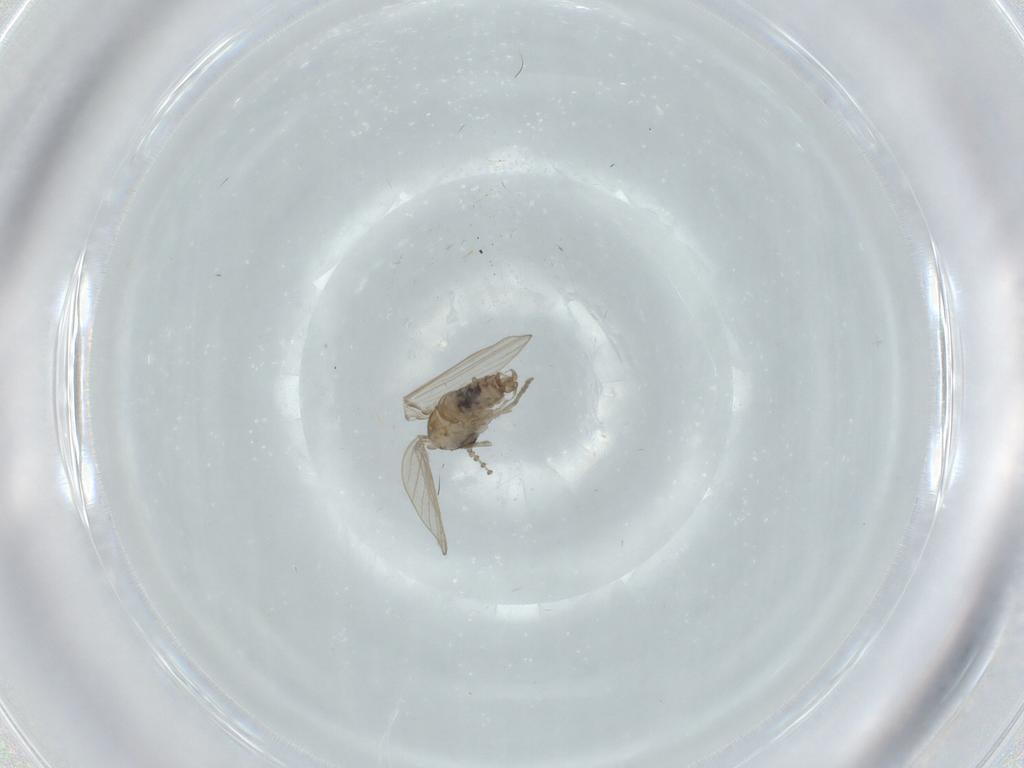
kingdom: Animalia
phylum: Arthropoda
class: Insecta
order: Diptera
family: Psychodidae
